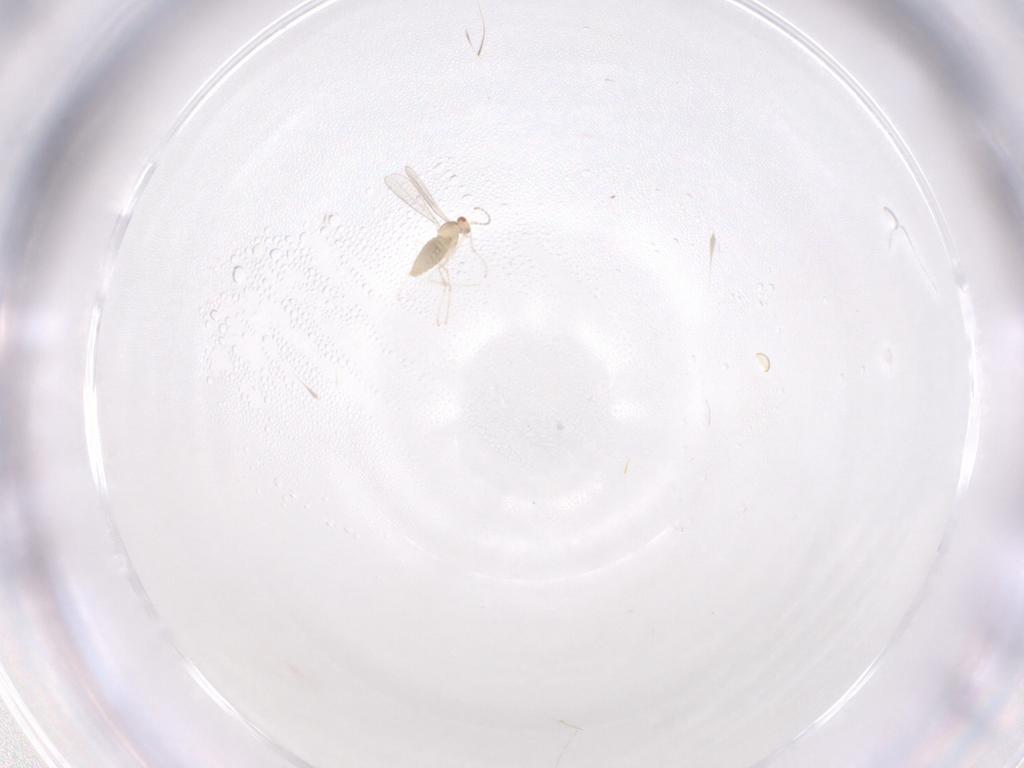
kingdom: Animalia
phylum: Arthropoda
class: Insecta
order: Diptera
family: Cecidomyiidae
